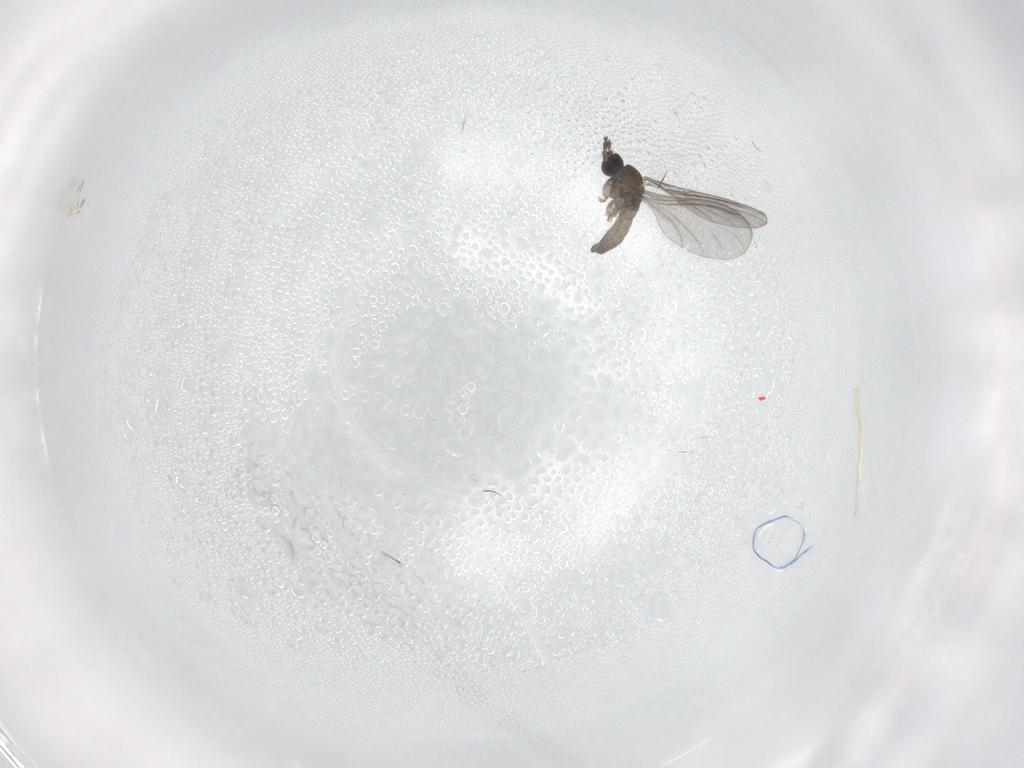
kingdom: Animalia
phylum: Arthropoda
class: Insecta
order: Diptera
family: Sciaridae
